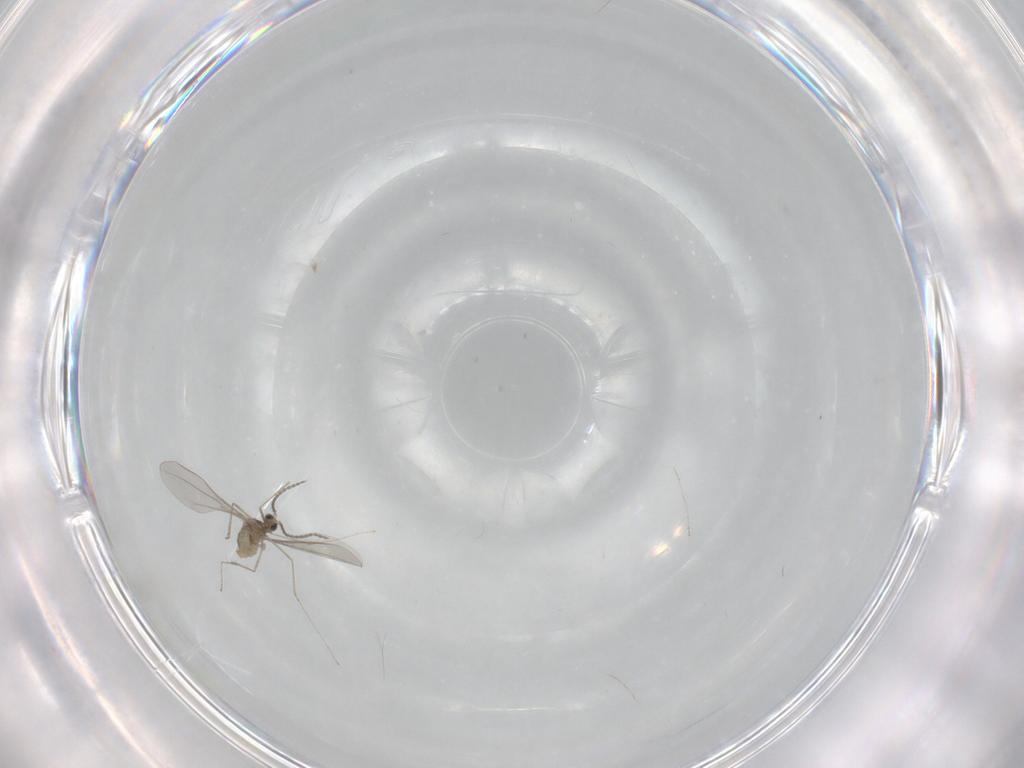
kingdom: Animalia
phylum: Arthropoda
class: Insecta
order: Diptera
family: Cecidomyiidae
